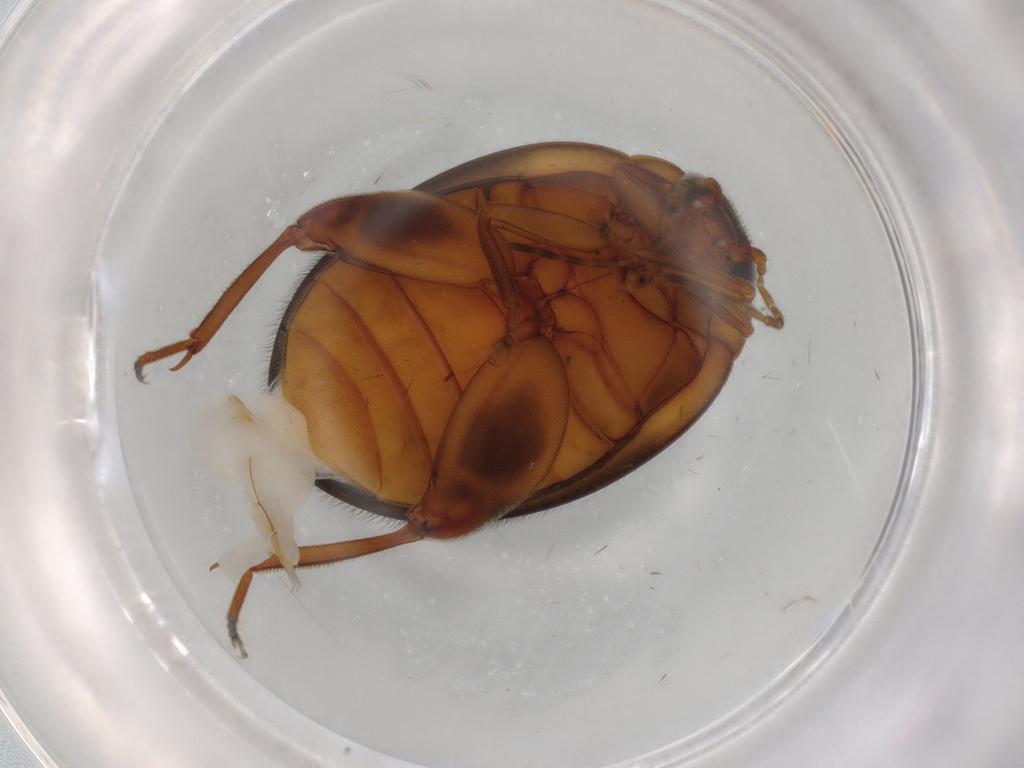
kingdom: Animalia
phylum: Arthropoda
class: Insecta
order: Coleoptera
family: Scirtidae
